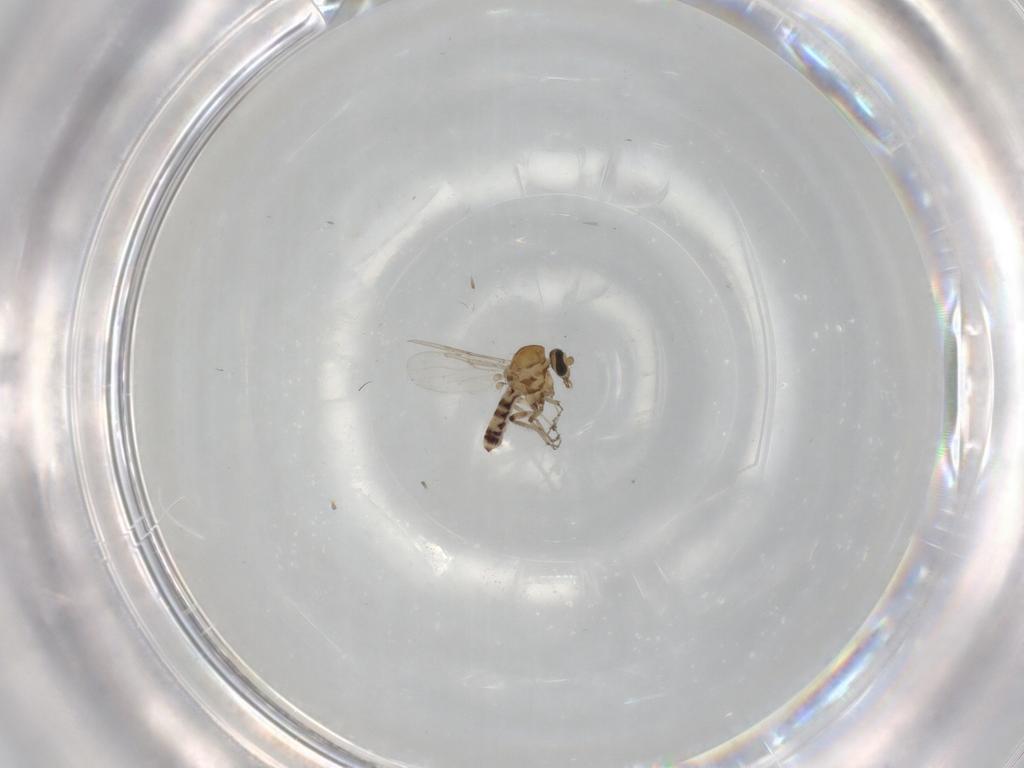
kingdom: Animalia
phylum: Arthropoda
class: Insecta
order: Diptera
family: Ceratopogonidae
